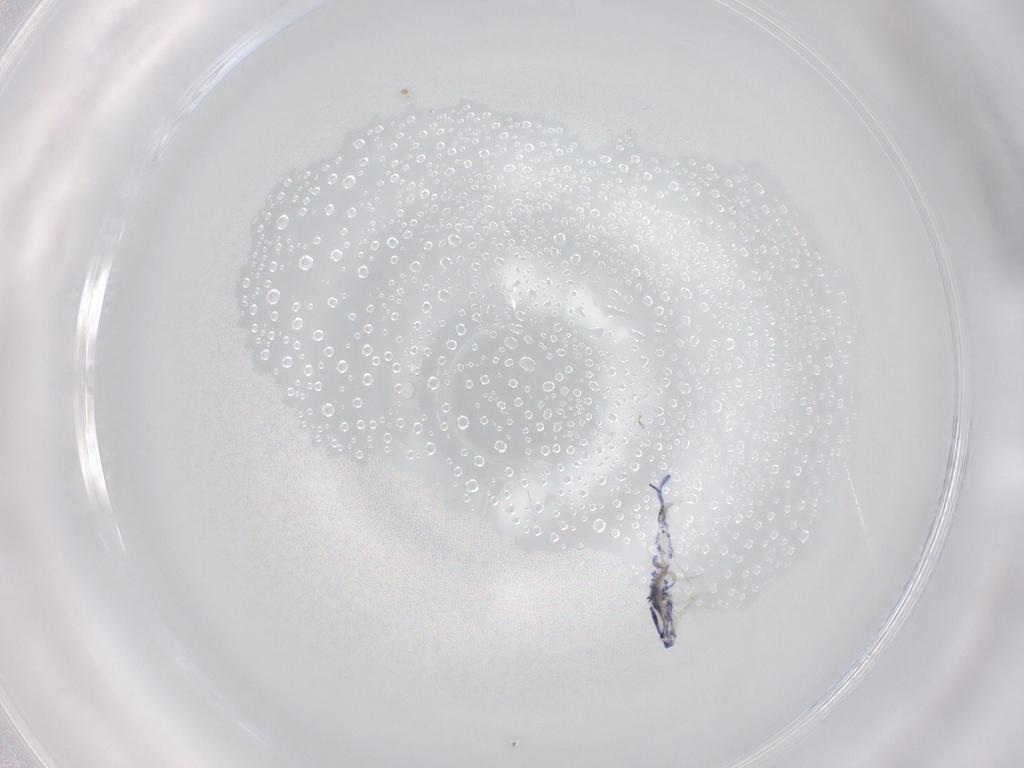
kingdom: Animalia
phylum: Arthropoda
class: Collembola
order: Entomobryomorpha
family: Entomobryidae
